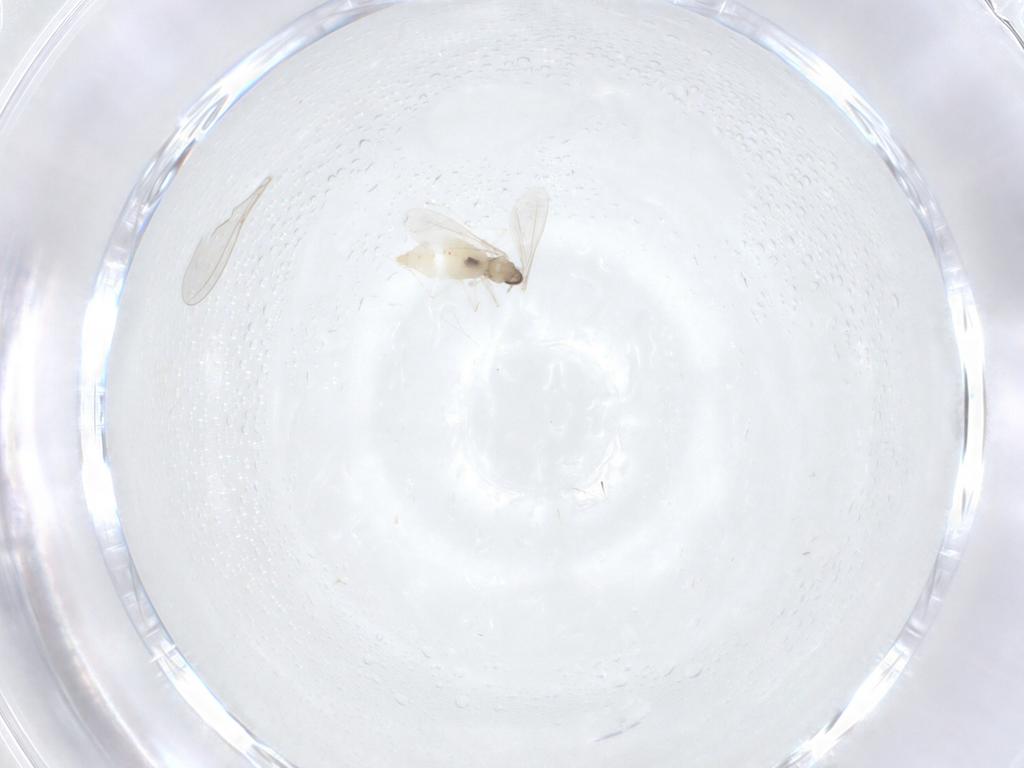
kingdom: Animalia
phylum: Arthropoda
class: Insecta
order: Diptera
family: Cecidomyiidae
